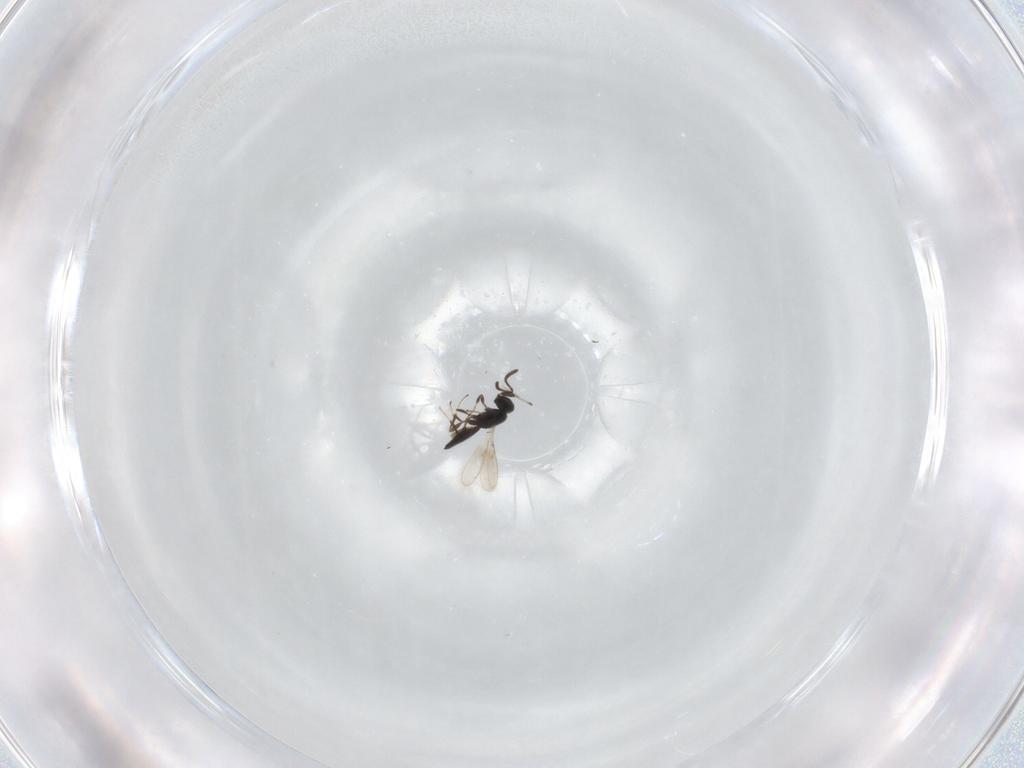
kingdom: Animalia
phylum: Arthropoda
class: Insecta
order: Hymenoptera
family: Scelionidae
